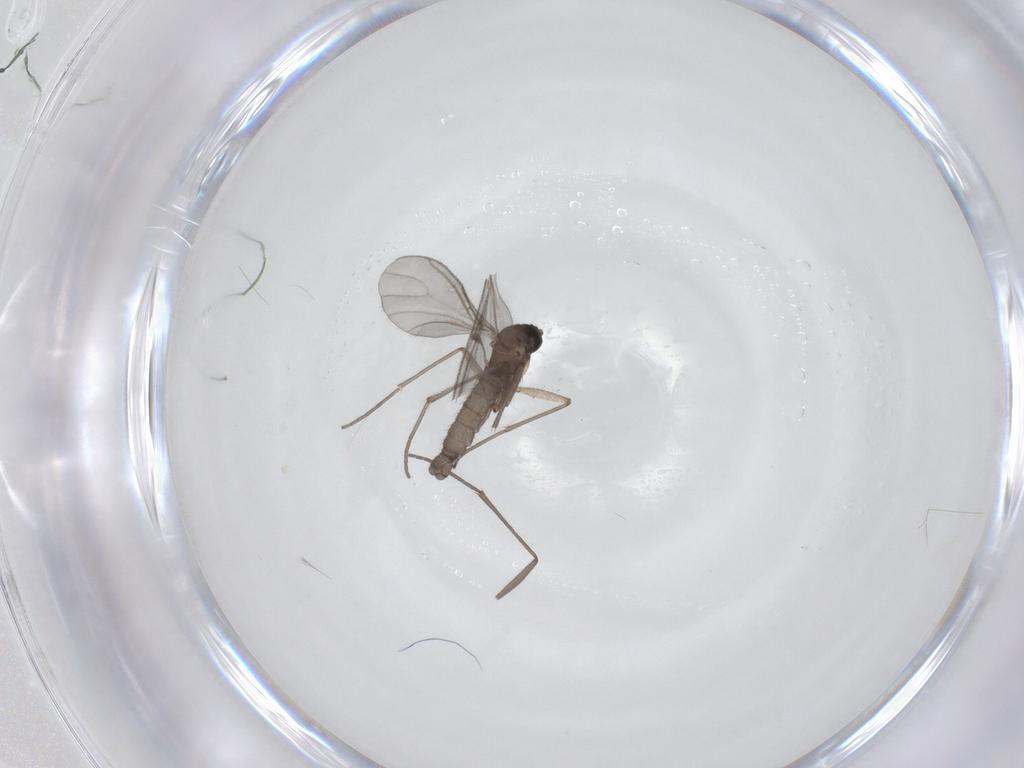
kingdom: Animalia
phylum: Arthropoda
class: Insecta
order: Diptera
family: Sciaridae
